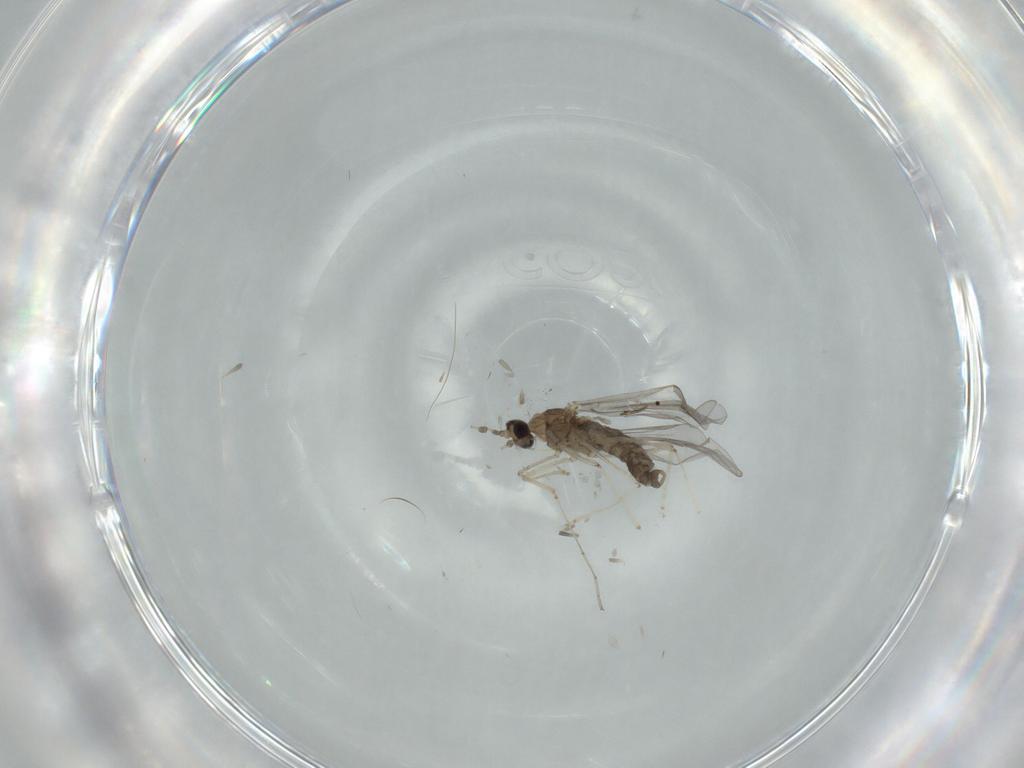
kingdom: Animalia
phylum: Arthropoda
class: Insecta
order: Diptera
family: Cecidomyiidae
